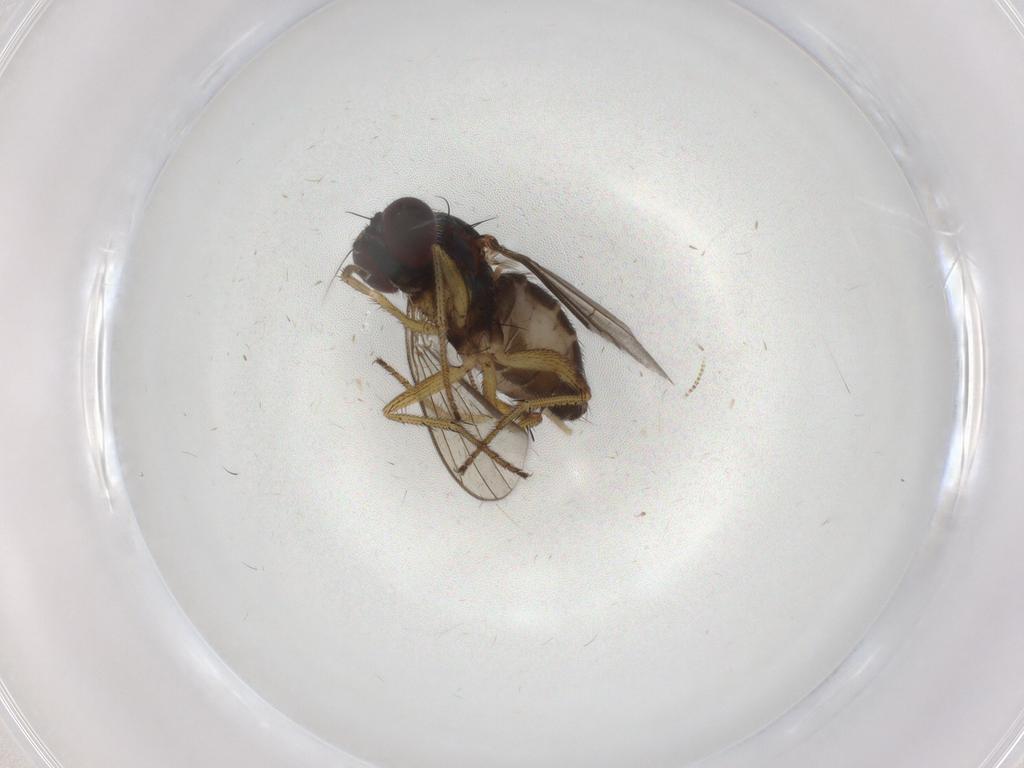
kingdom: Animalia
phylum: Arthropoda
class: Insecta
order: Diptera
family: Dolichopodidae
